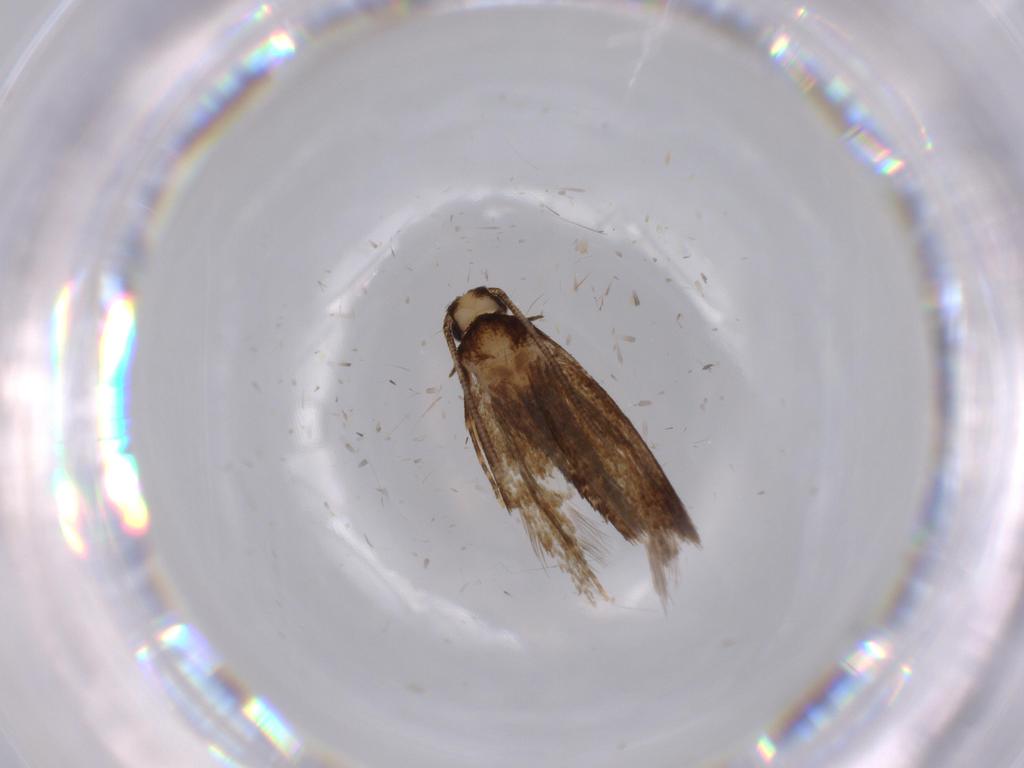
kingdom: Animalia
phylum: Arthropoda
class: Insecta
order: Lepidoptera
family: Tineidae
